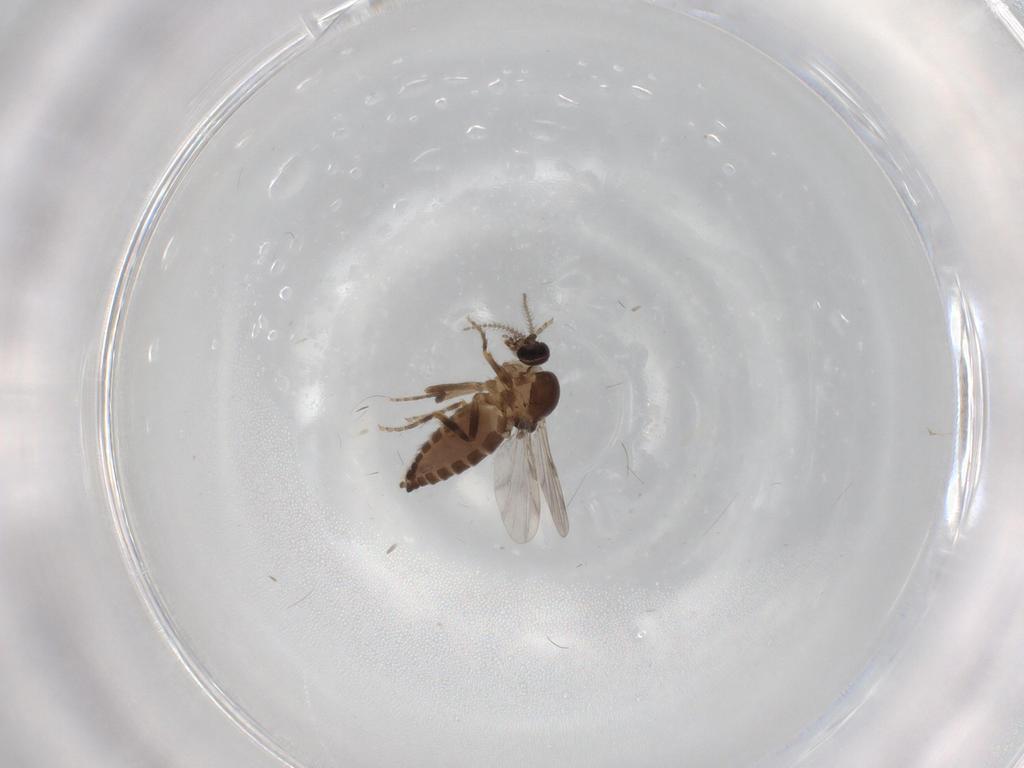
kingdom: Animalia
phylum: Arthropoda
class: Insecta
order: Diptera
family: Ceratopogonidae
